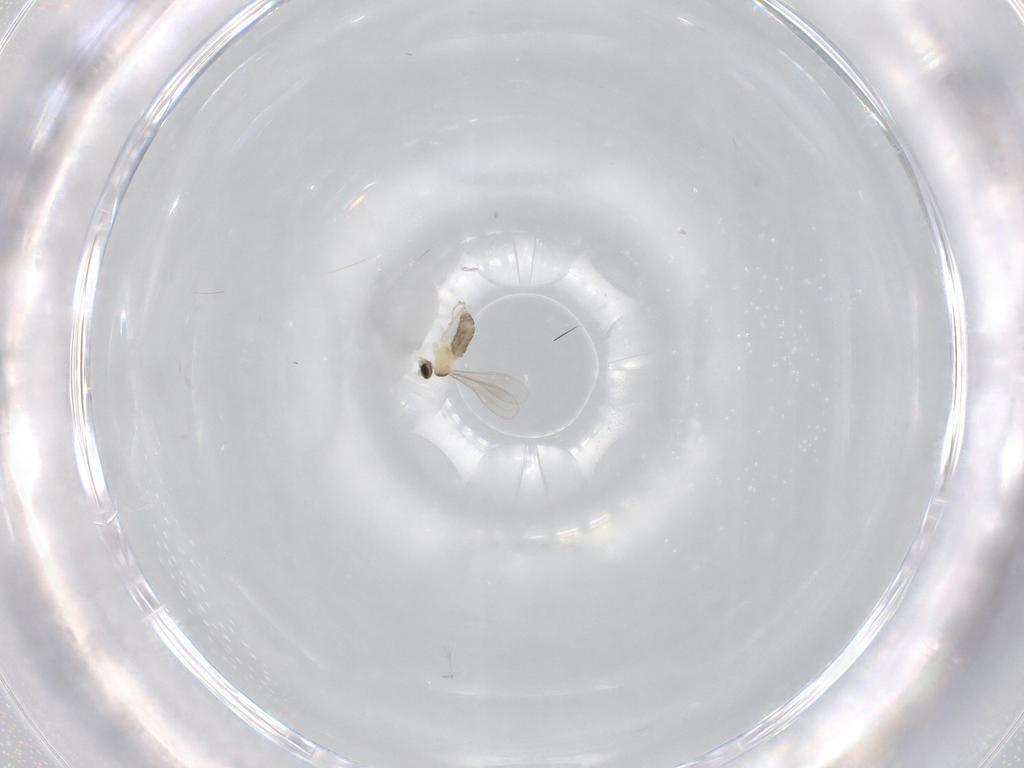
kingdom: Animalia
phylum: Arthropoda
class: Insecta
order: Diptera
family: Cecidomyiidae
